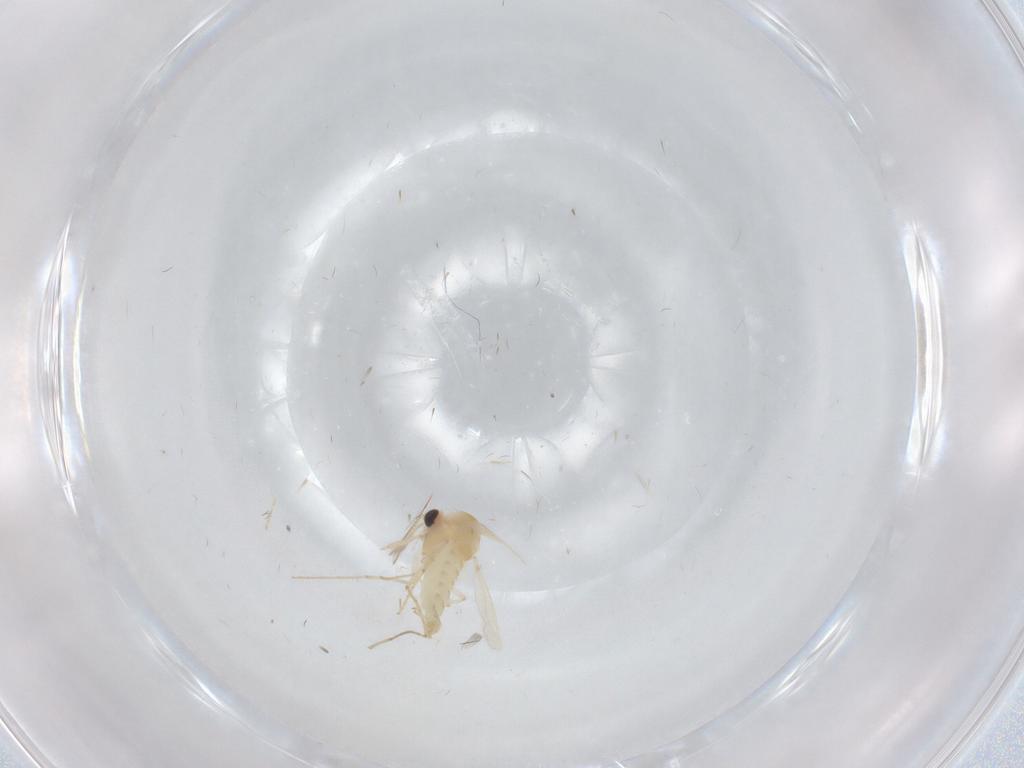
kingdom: Animalia
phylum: Arthropoda
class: Insecta
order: Diptera
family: Chironomidae
